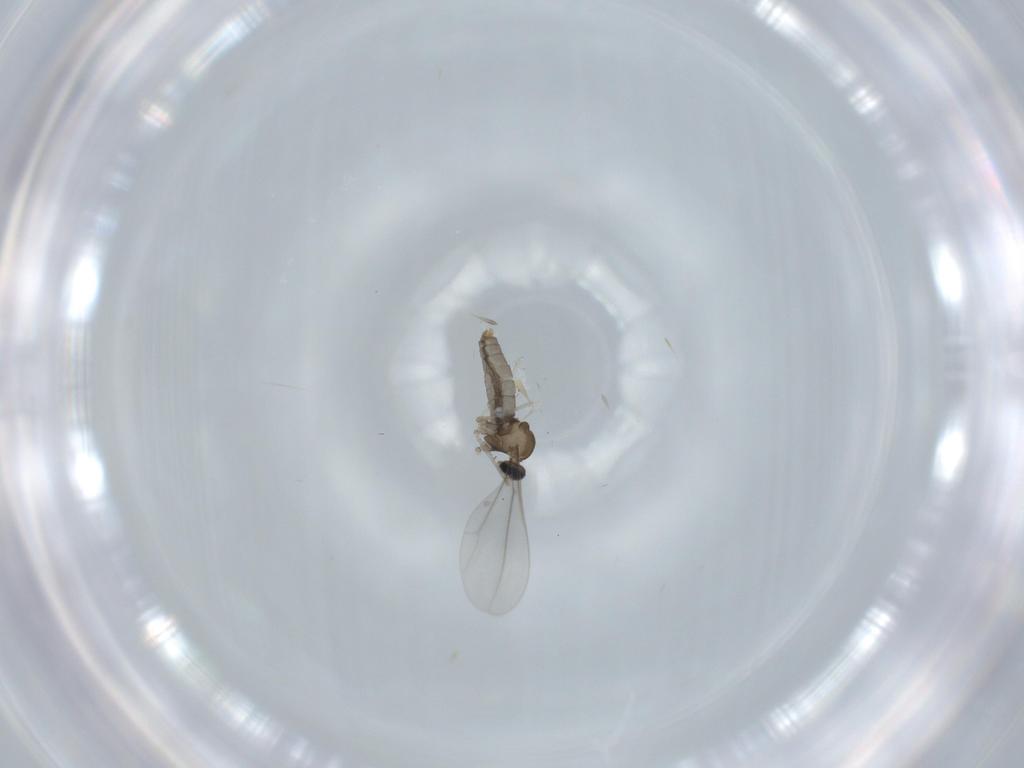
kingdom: Animalia
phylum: Arthropoda
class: Insecta
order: Diptera
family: Cecidomyiidae
